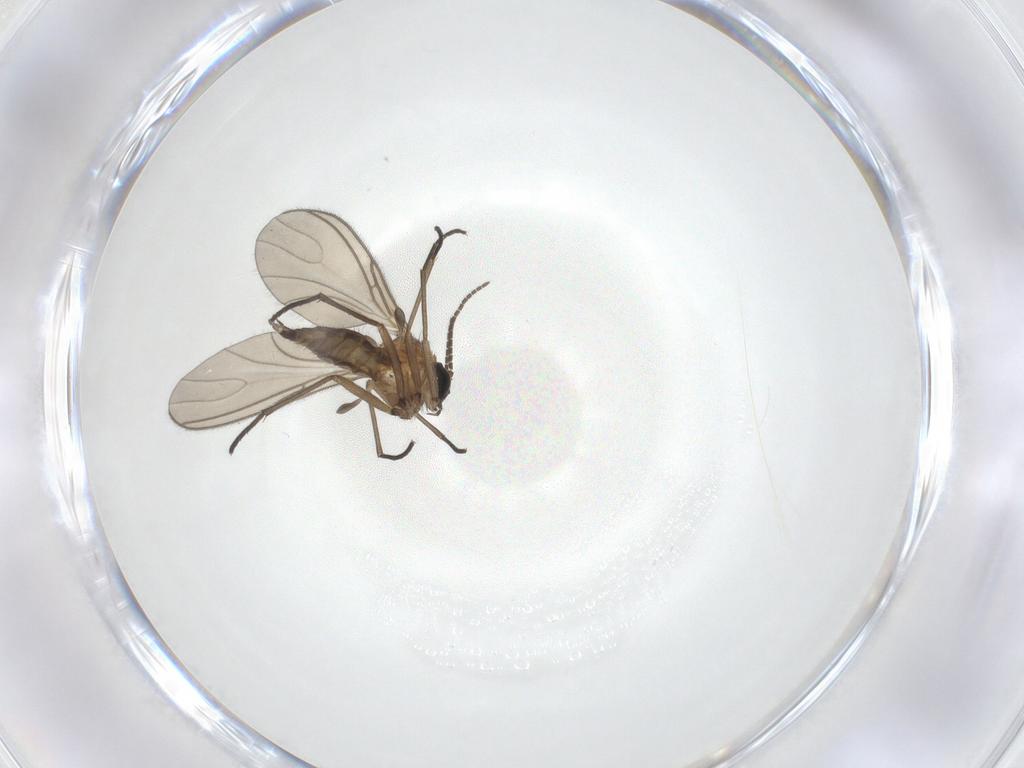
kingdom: Animalia
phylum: Arthropoda
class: Insecta
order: Diptera
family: Sciaridae
